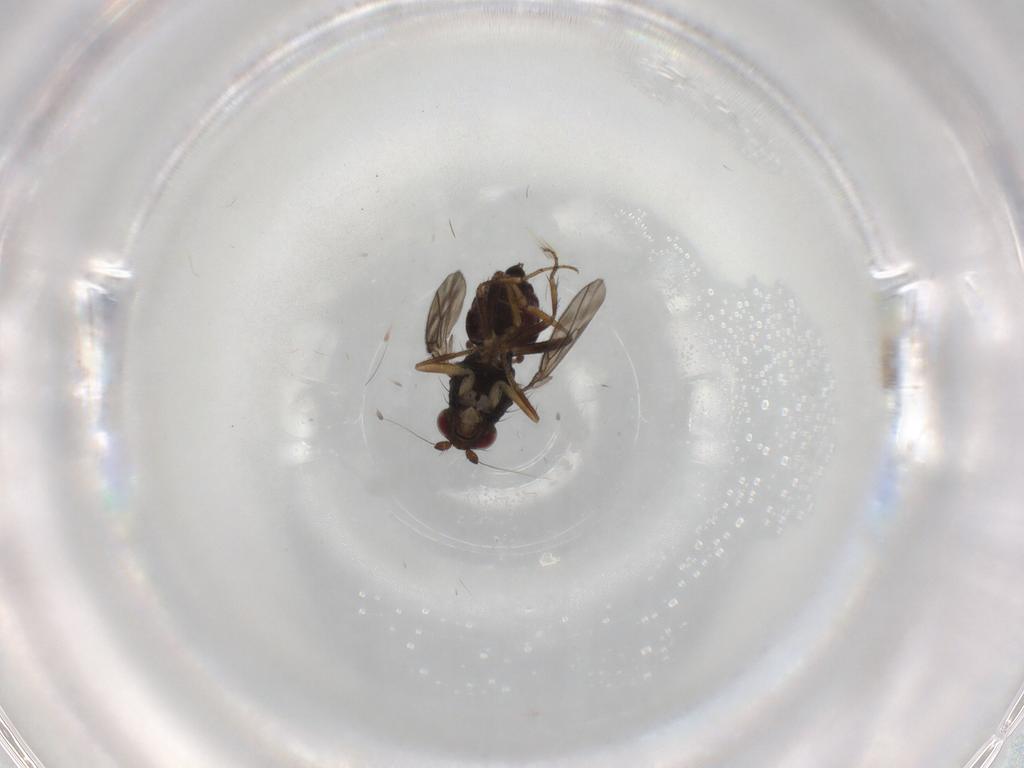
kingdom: Animalia
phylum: Arthropoda
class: Insecta
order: Diptera
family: Sphaeroceridae
